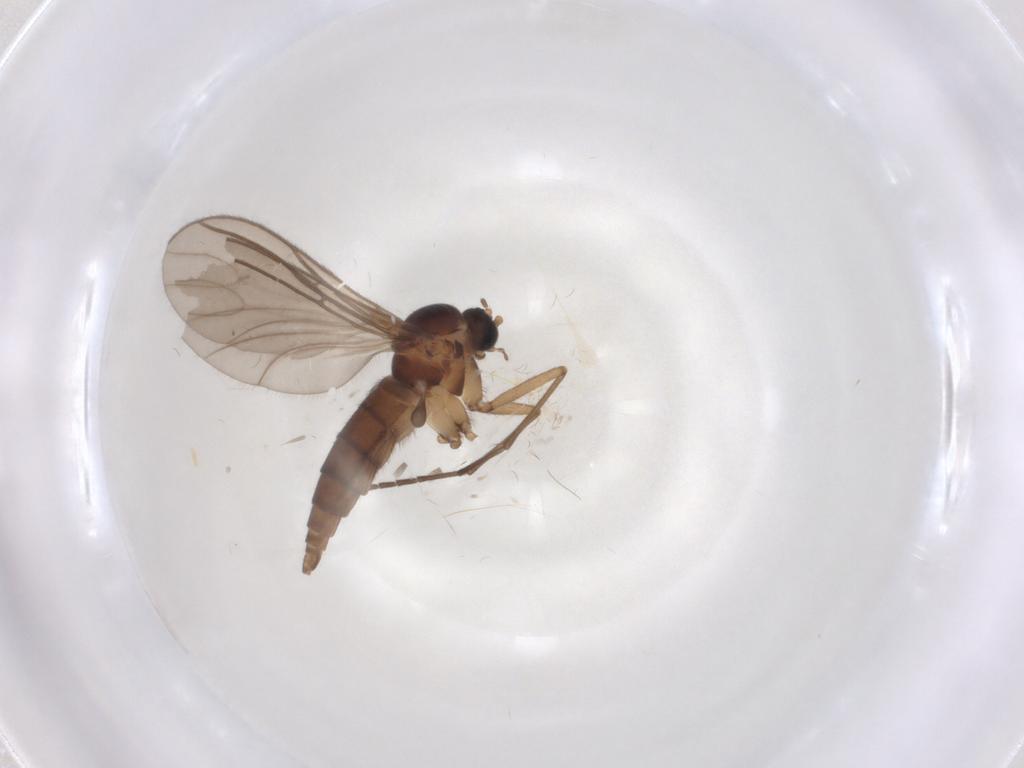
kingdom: Animalia
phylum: Arthropoda
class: Insecta
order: Diptera
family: Sciaridae
